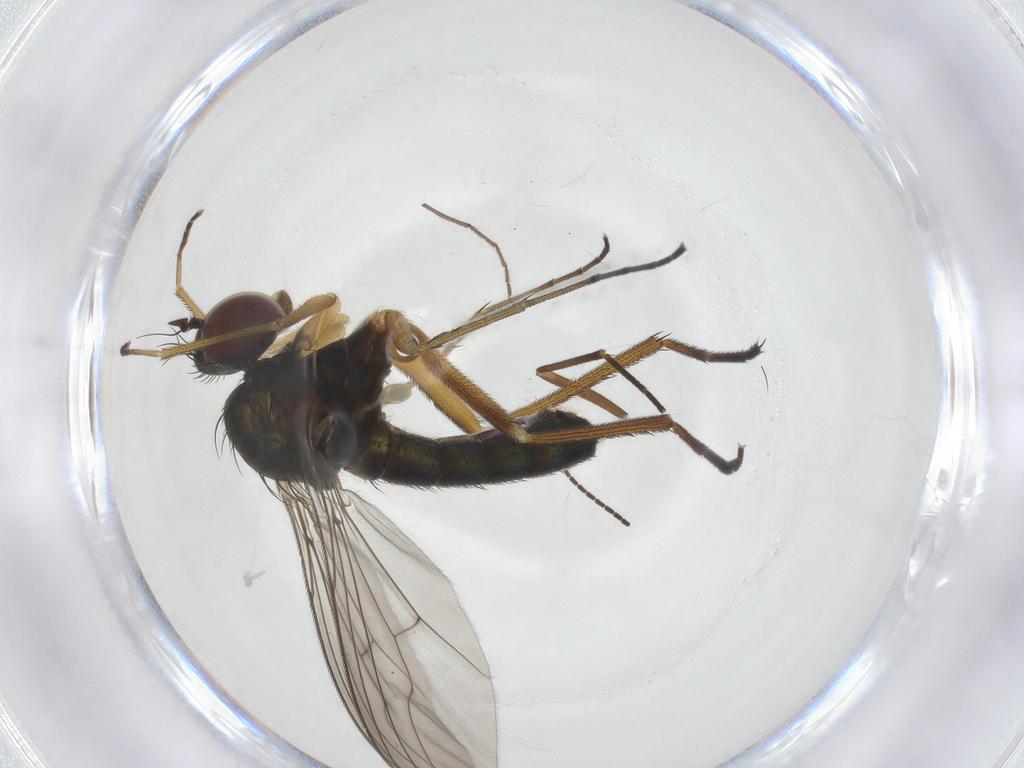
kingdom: Animalia
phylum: Arthropoda
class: Insecta
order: Diptera
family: Dolichopodidae
